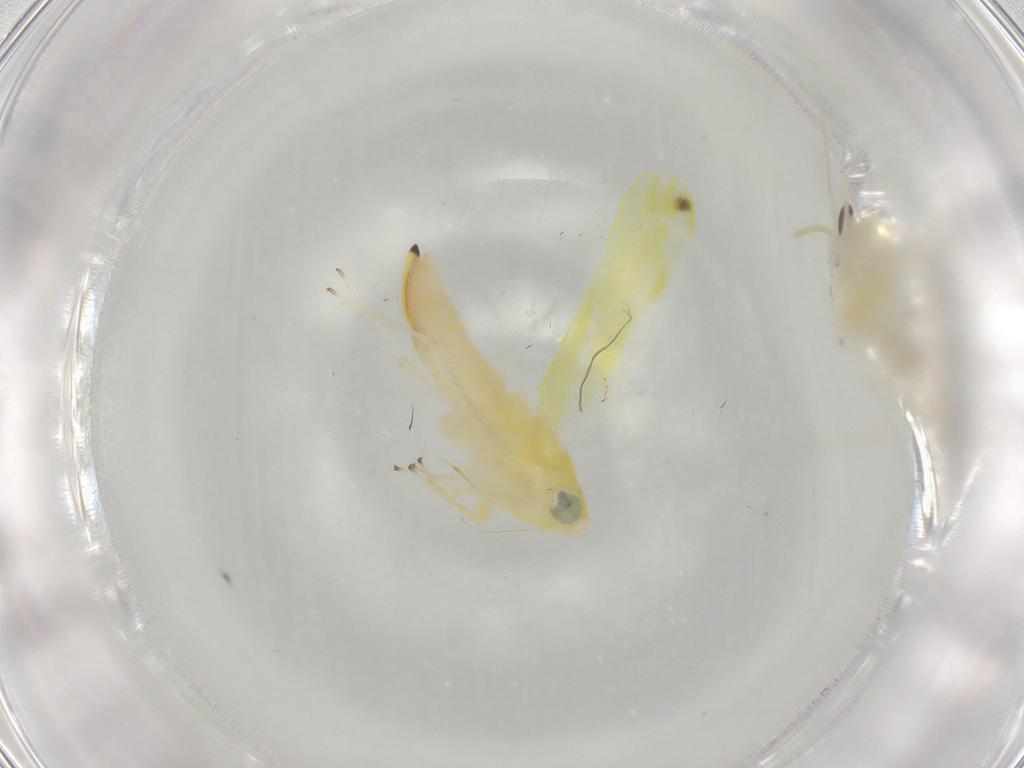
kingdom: Animalia
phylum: Arthropoda
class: Insecta
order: Hemiptera
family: Cicadellidae
